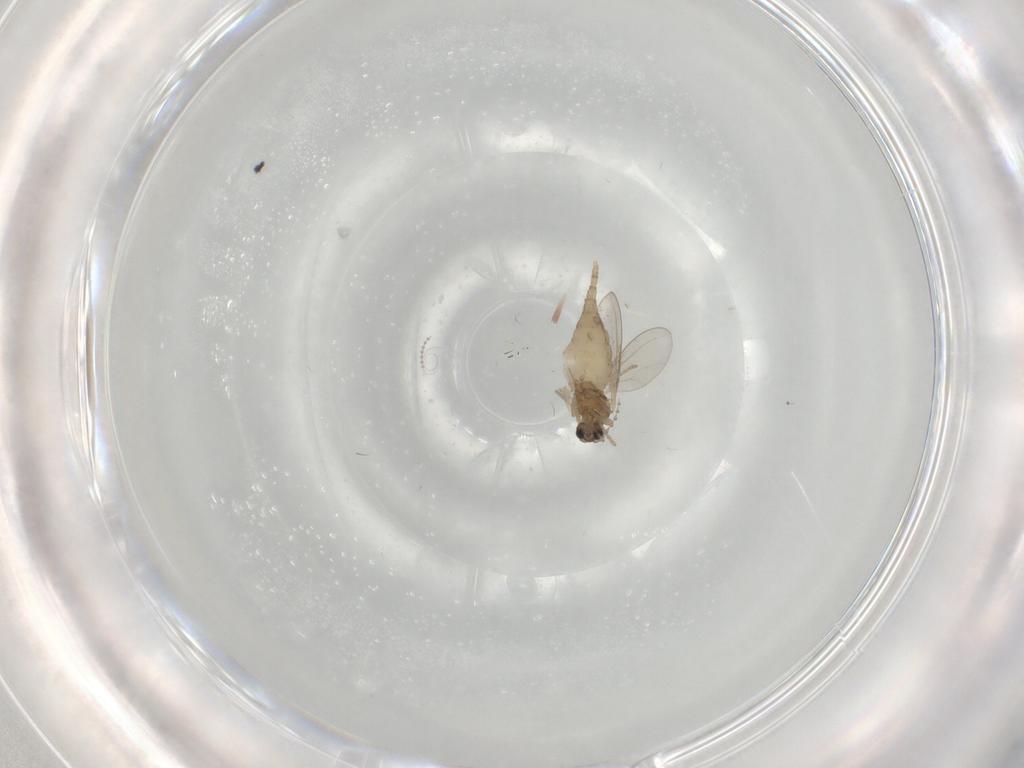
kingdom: Animalia
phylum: Arthropoda
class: Insecta
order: Diptera
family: Cecidomyiidae
